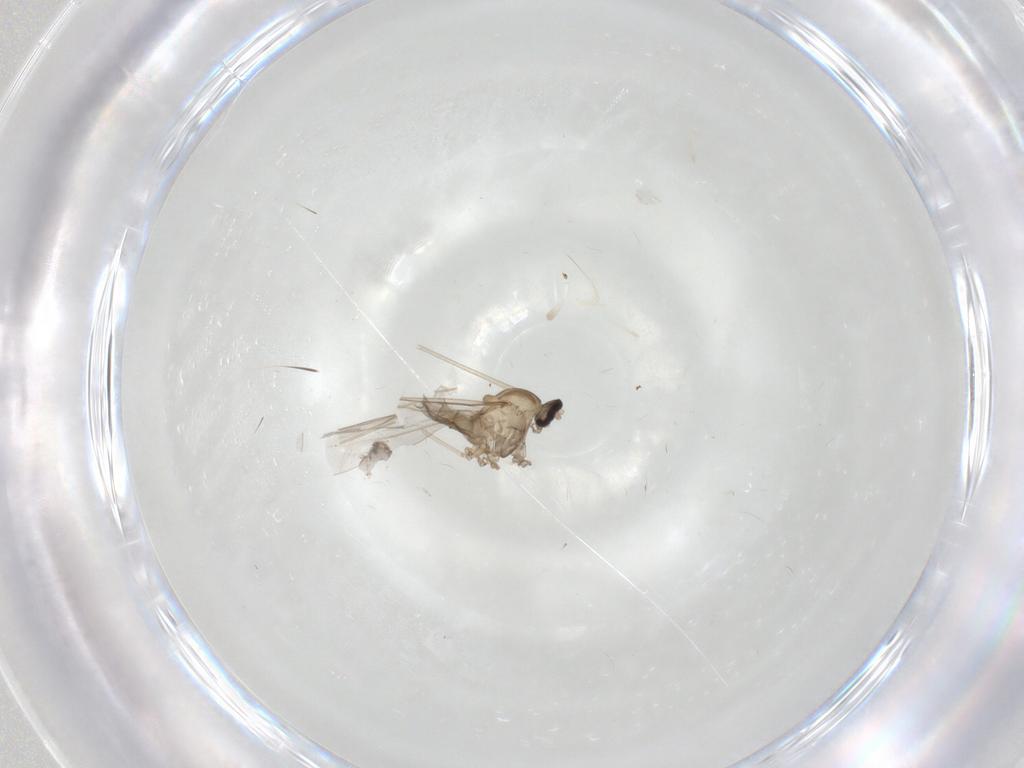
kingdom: Animalia
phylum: Arthropoda
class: Insecta
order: Diptera
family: Cecidomyiidae
